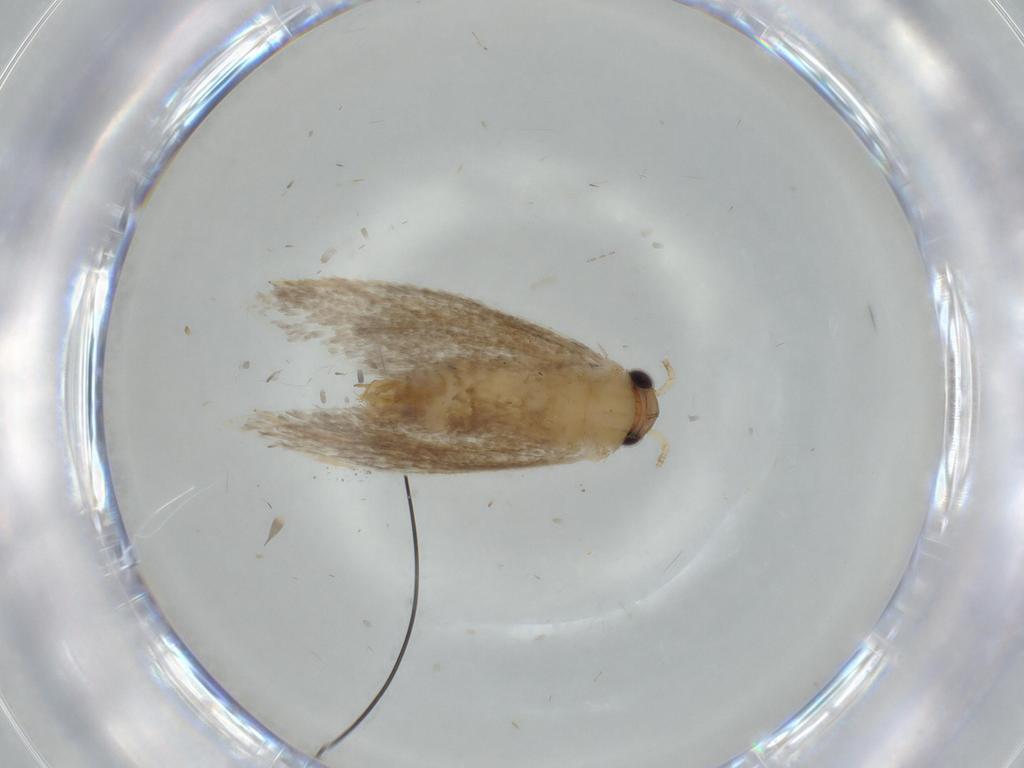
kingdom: Animalia
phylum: Arthropoda
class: Insecta
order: Lepidoptera
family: Tineidae
